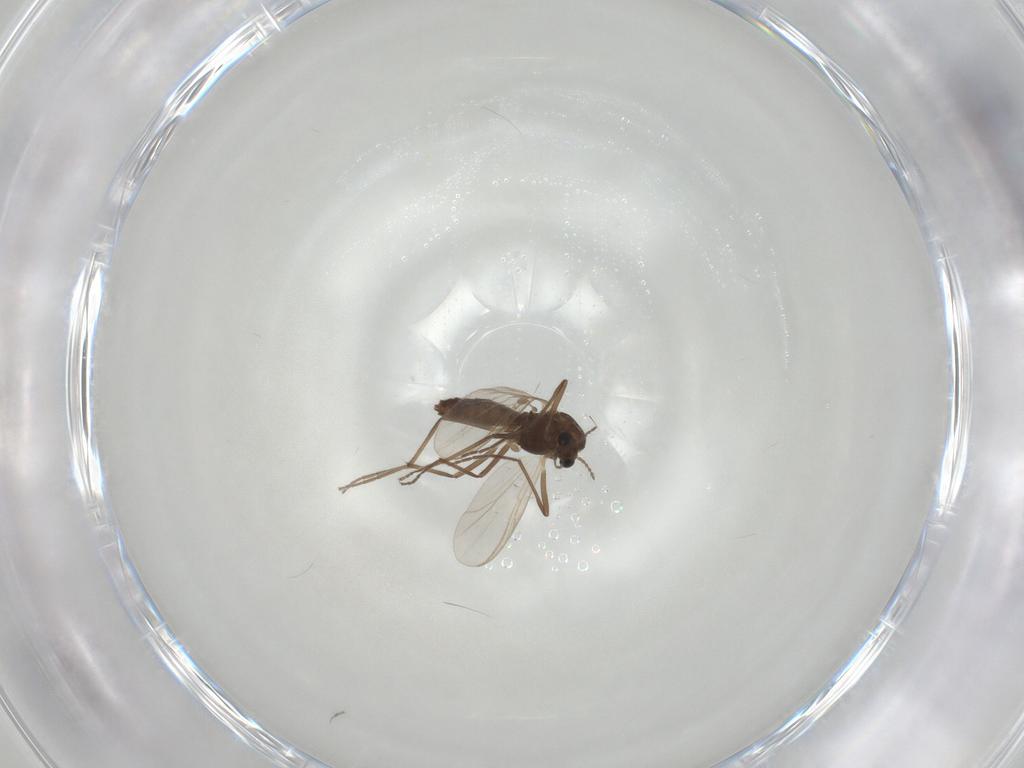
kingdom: Animalia
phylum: Arthropoda
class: Insecta
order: Diptera
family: Chironomidae
